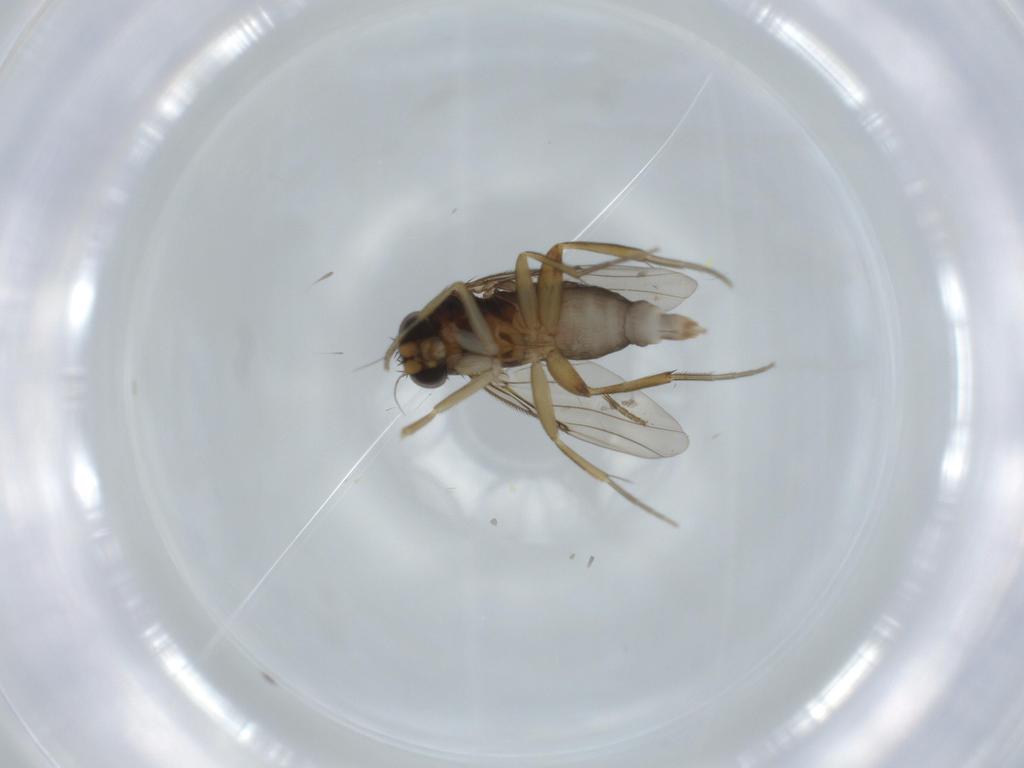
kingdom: Animalia
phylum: Arthropoda
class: Insecta
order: Diptera
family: Phoridae
